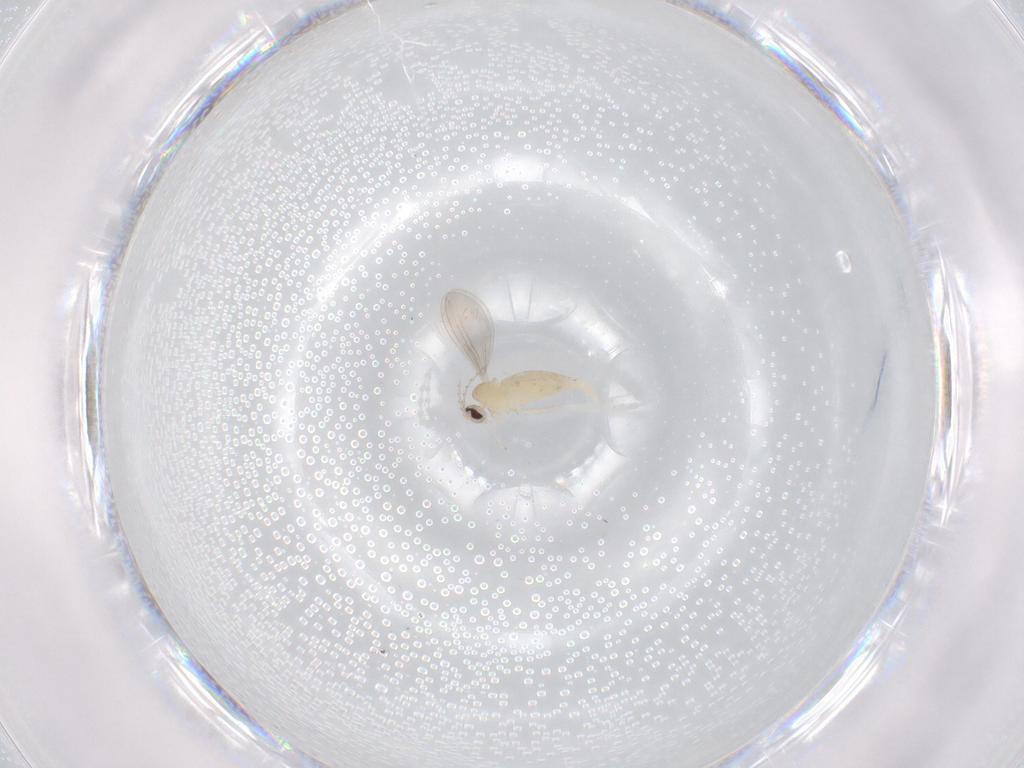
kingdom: Animalia
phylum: Arthropoda
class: Insecta
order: Diptera
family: Cecidomyiidae
